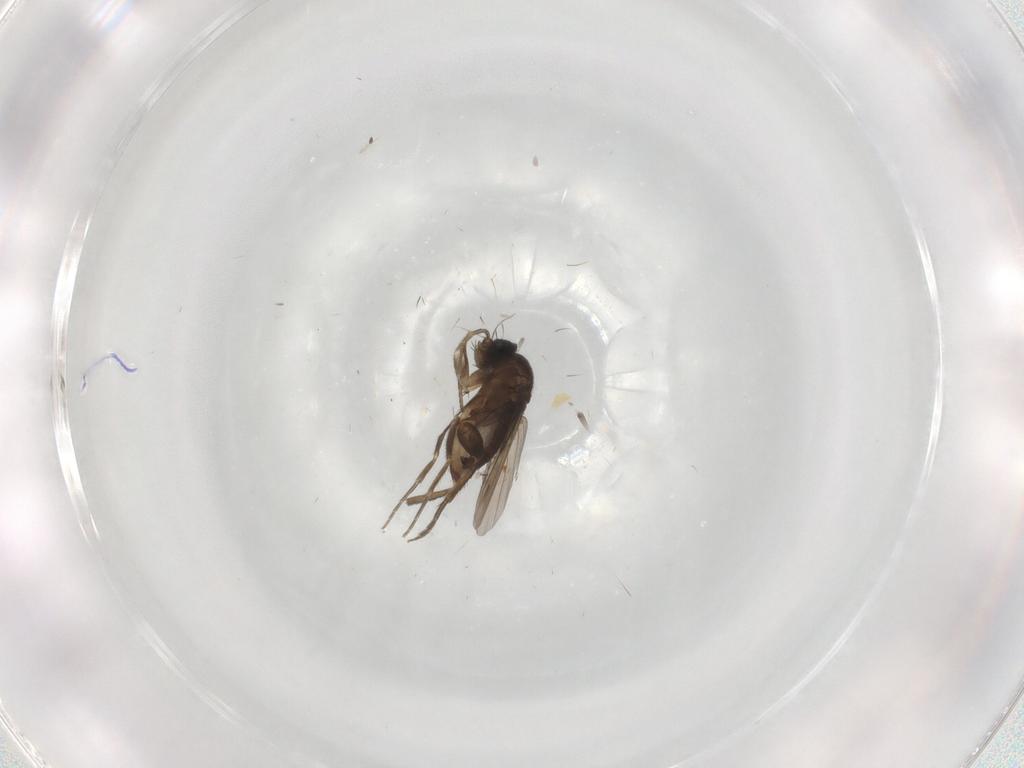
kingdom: Animalia
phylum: Arthropoda
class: Insecta
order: Diptera
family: Phoridae
